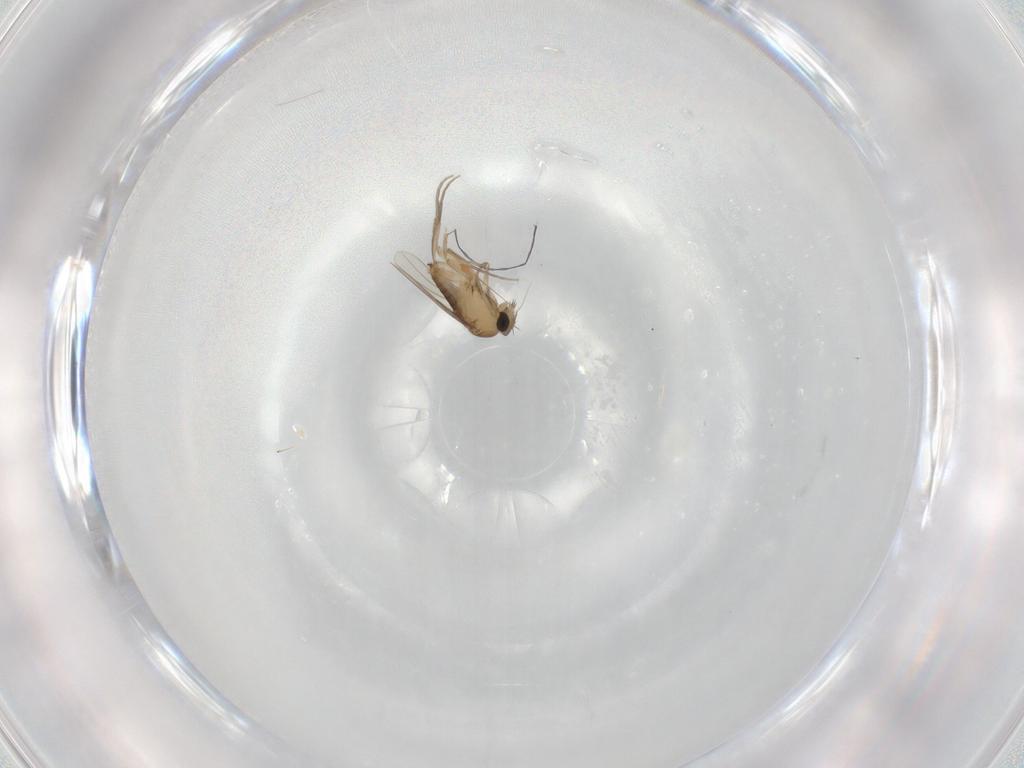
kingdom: Animalia
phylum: Arthropoda
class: Insecta
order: Diptera
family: Phoridae
